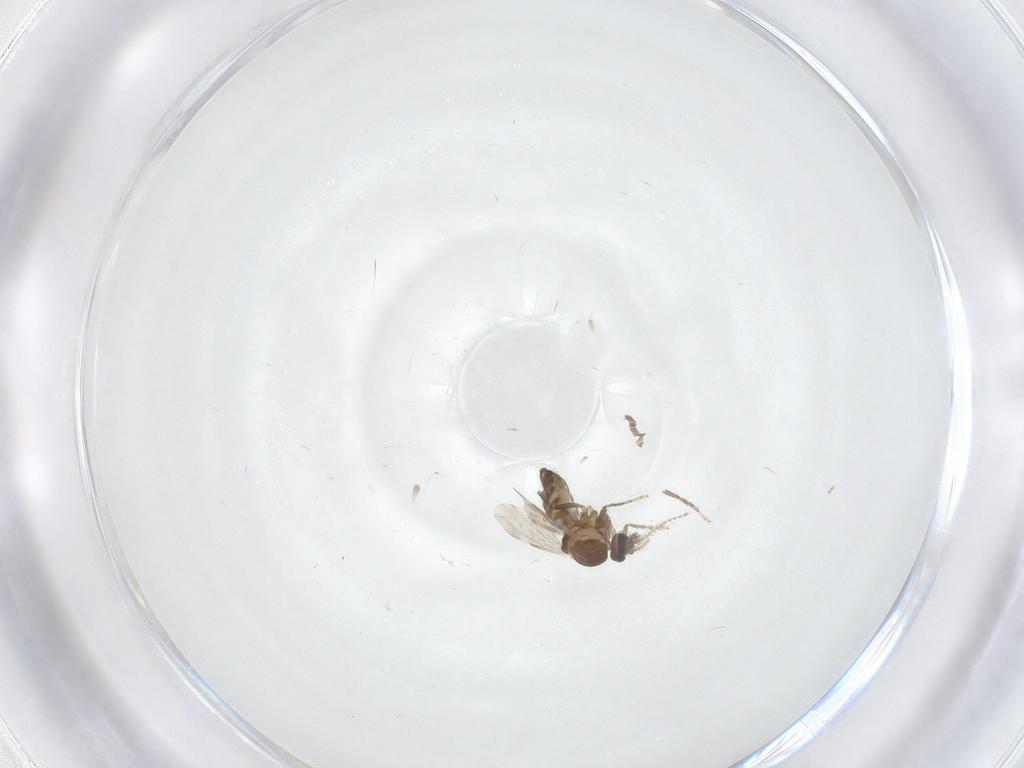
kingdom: Animalia
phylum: Arthropoda
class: Insecta
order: Diptera
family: Ceratopogonidae
